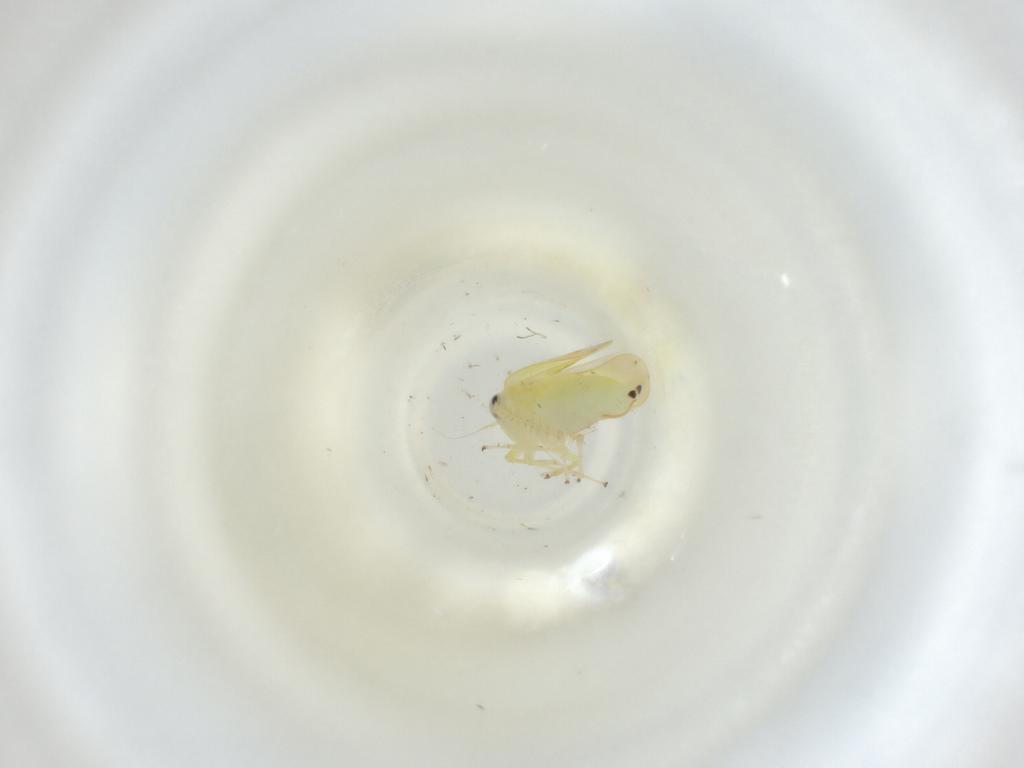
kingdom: Animalia
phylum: Arthropoda
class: Insecta
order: Hemiptera
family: Cicadellidae
